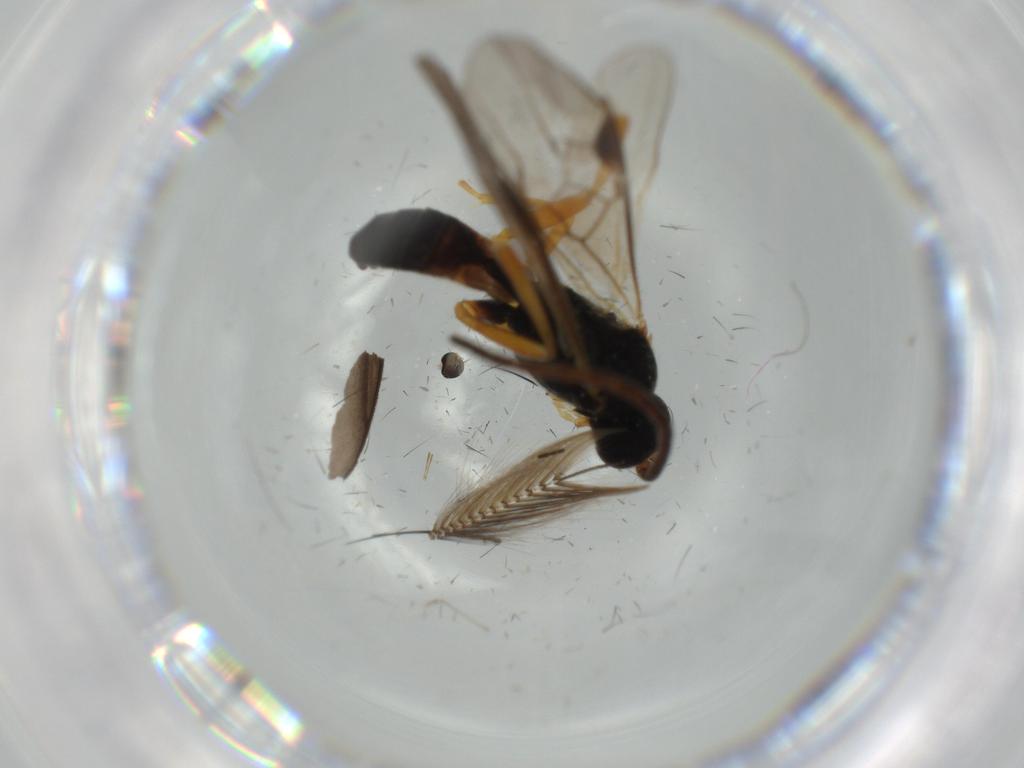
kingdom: Animalia
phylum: Arthropoda
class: Insecta
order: Hymenoptera
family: Braconidae
